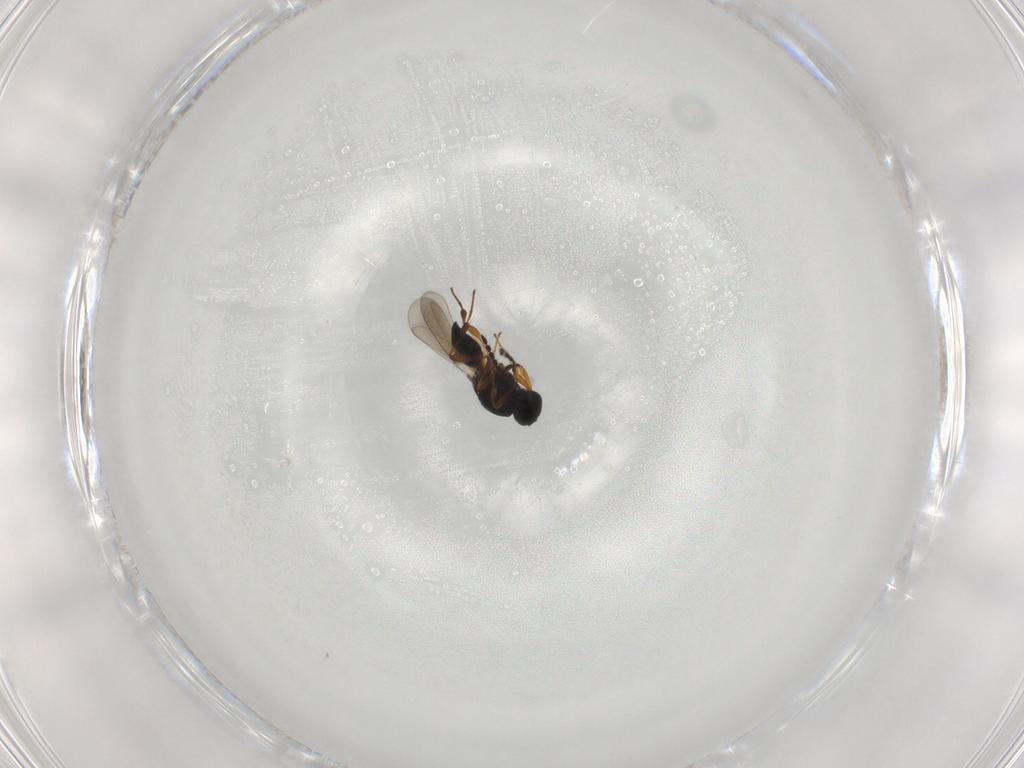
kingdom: Animalia
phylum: Arthropoda
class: Insecta
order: Hymenoptera
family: Platygastridae
